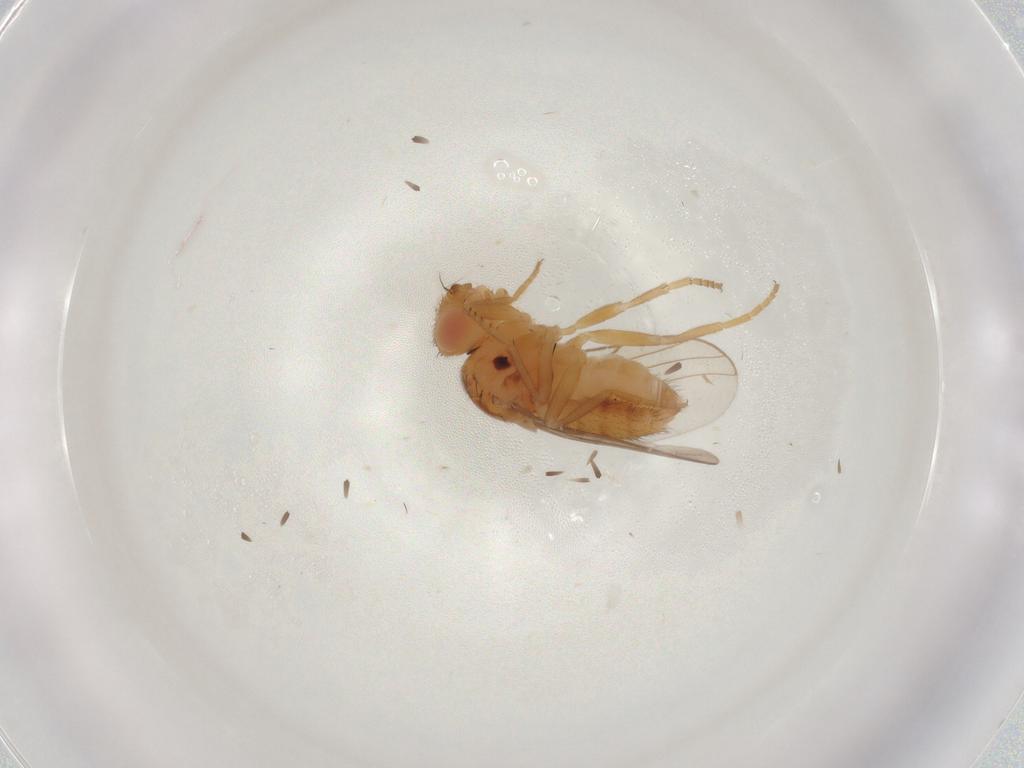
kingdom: Animalia
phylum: Arthropoda
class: Insecta
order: Diptera
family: Chloropidae
